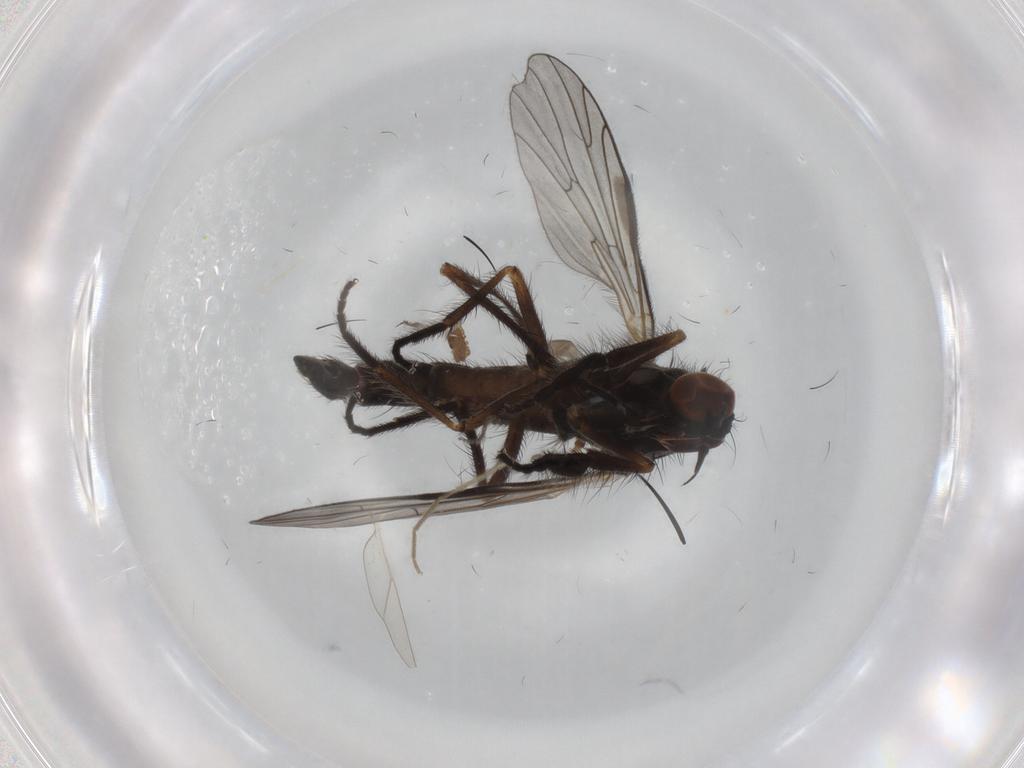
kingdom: Animalia
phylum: Arthropoda
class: Insecta
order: Diptera
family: Empididae
